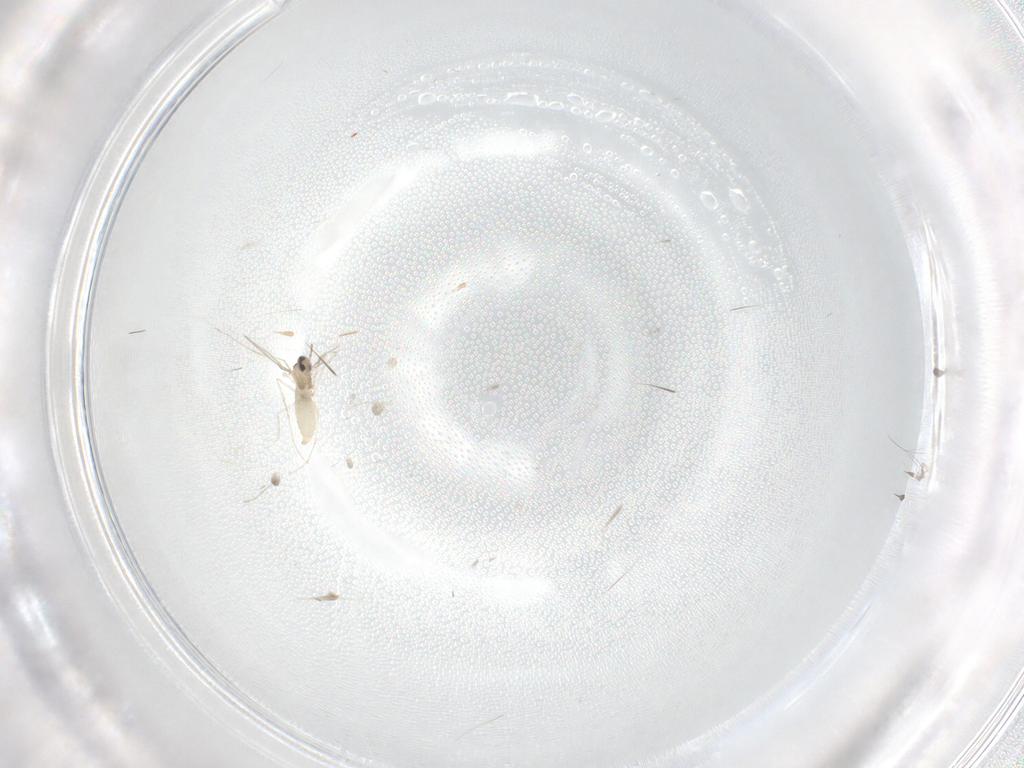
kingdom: Animalia
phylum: Arthropoda
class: Insecta
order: Diptera
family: Cecidomyiidae
